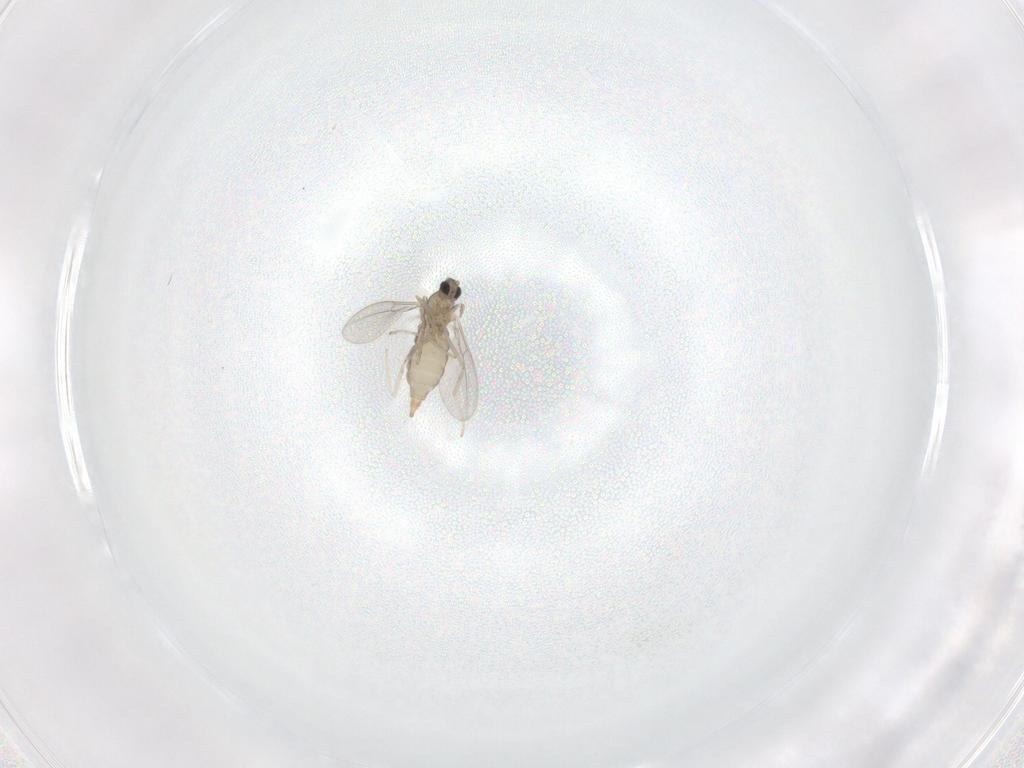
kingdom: Animalia
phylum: Arthropoda
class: Insecta
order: Diptera
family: Cecidomyiidae
